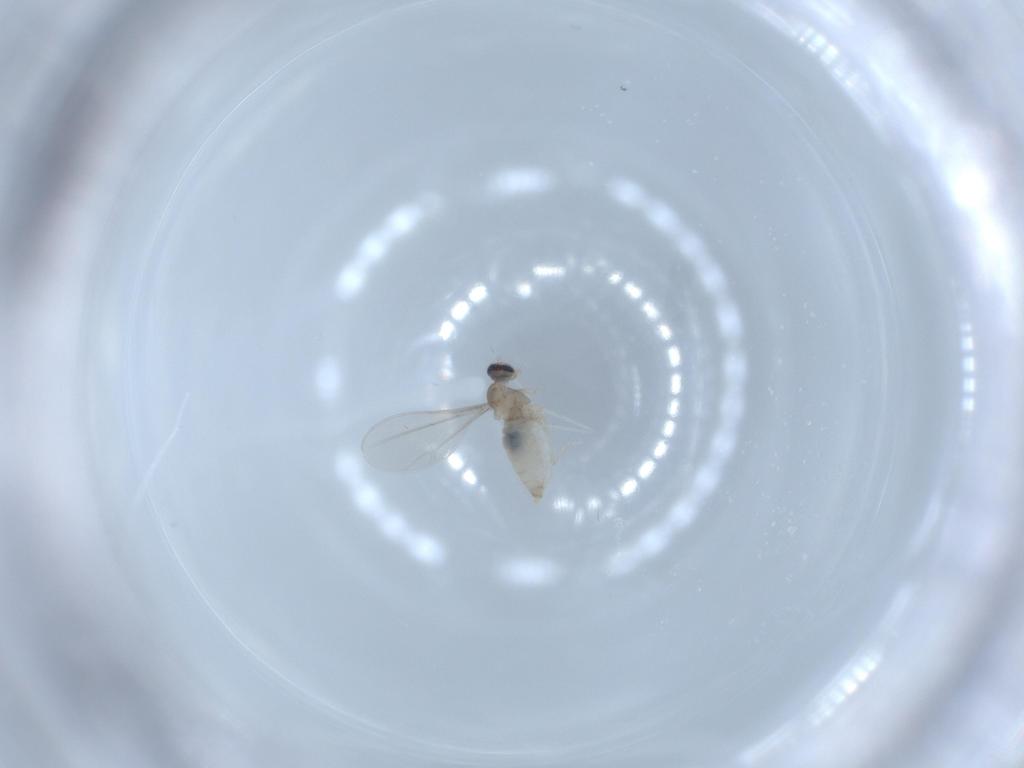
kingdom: Animalia
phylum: Arthropoda
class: Insecta
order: Diptera
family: Cecidomyiidae
